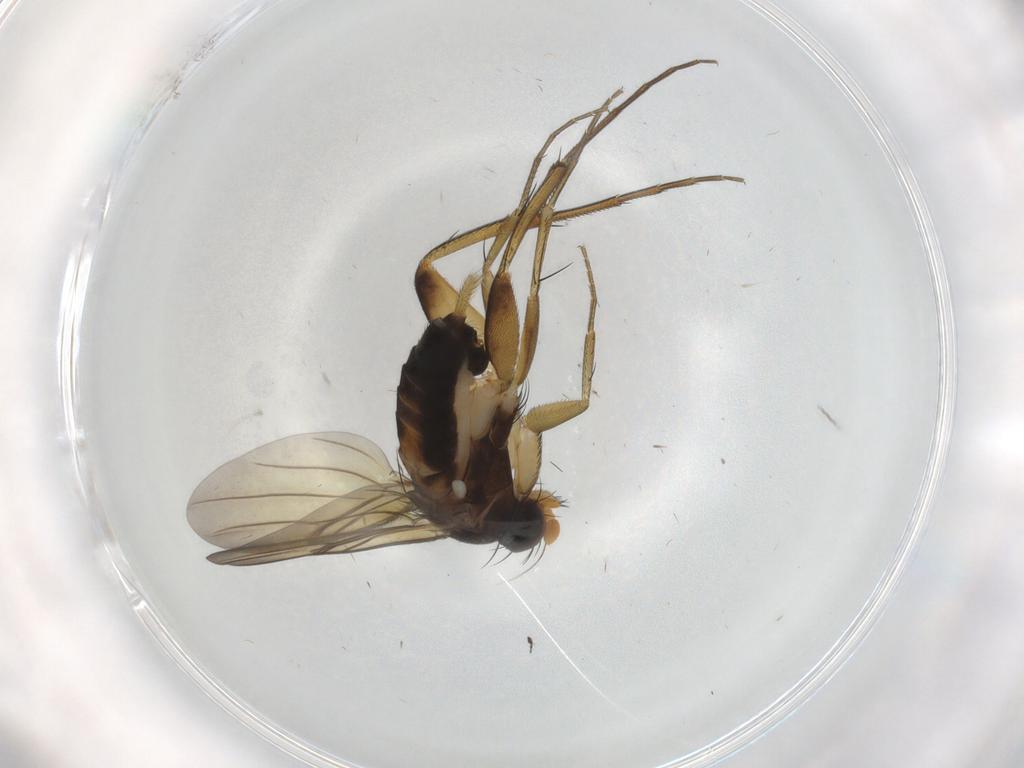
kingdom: Animalia
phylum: Arthropoda
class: Insecta
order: Diptera
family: Phoridae
